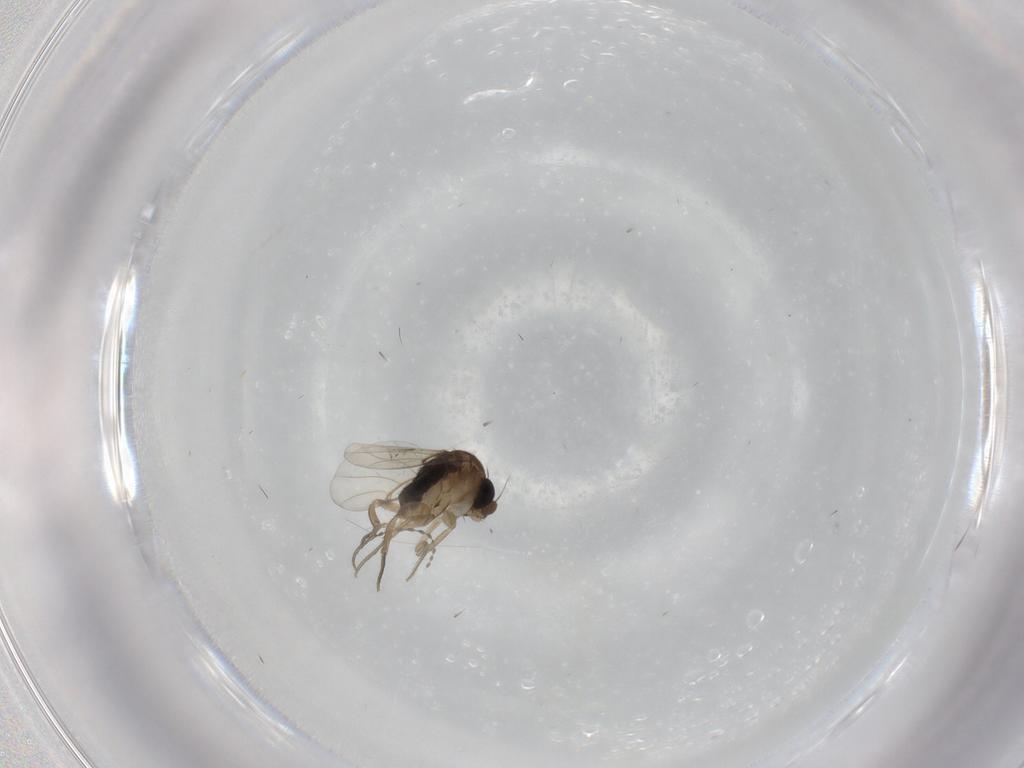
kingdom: Animalia
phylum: Arthropoda
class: Insecta
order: Diptera
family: Phoridae
